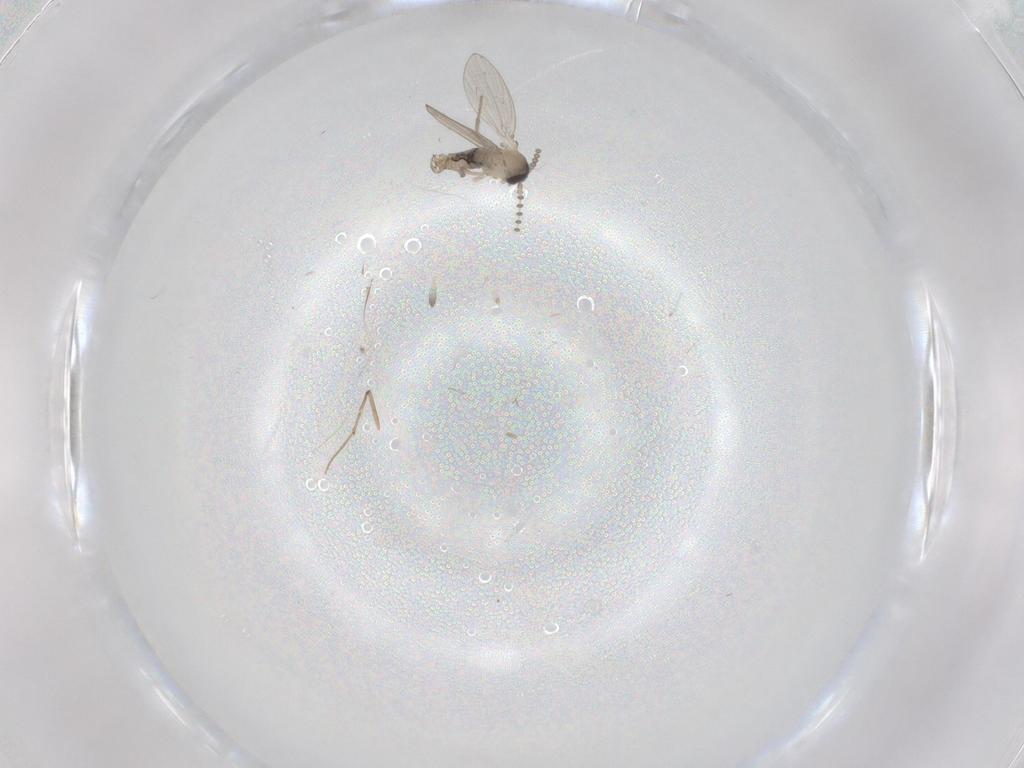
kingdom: Animalia
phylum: Arthropoda
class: Insecta
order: Diptera
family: Psychodidae
